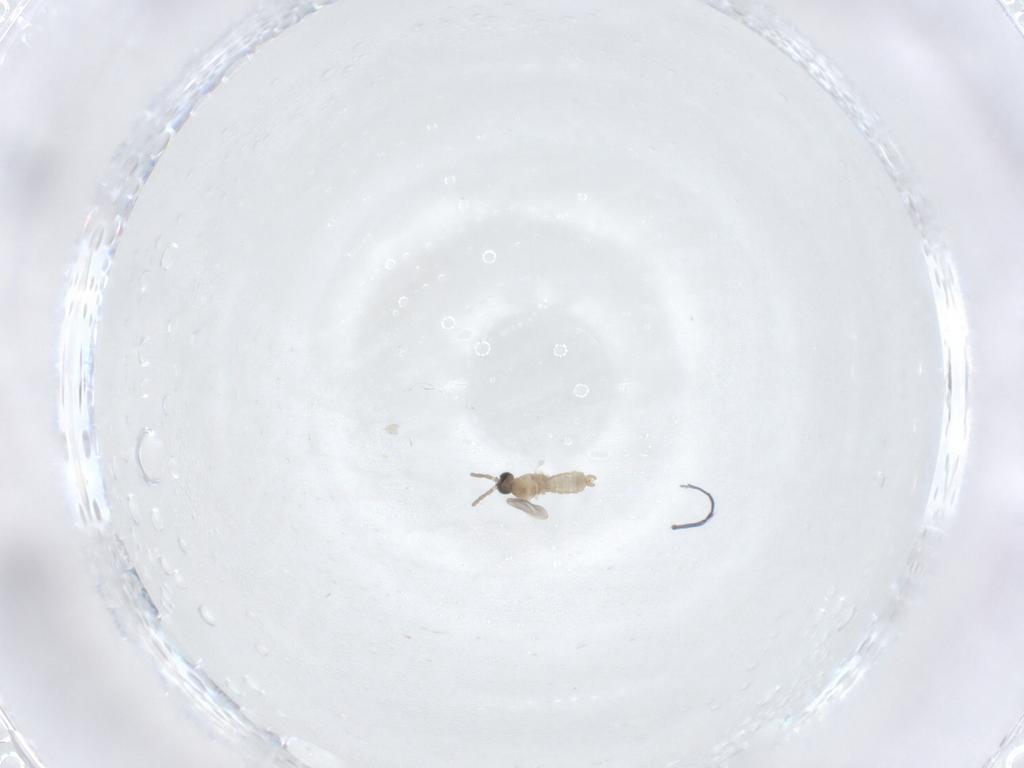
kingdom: Animalia
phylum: Arthropoda
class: Insecta
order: Diptera
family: Cecidomyiidae
